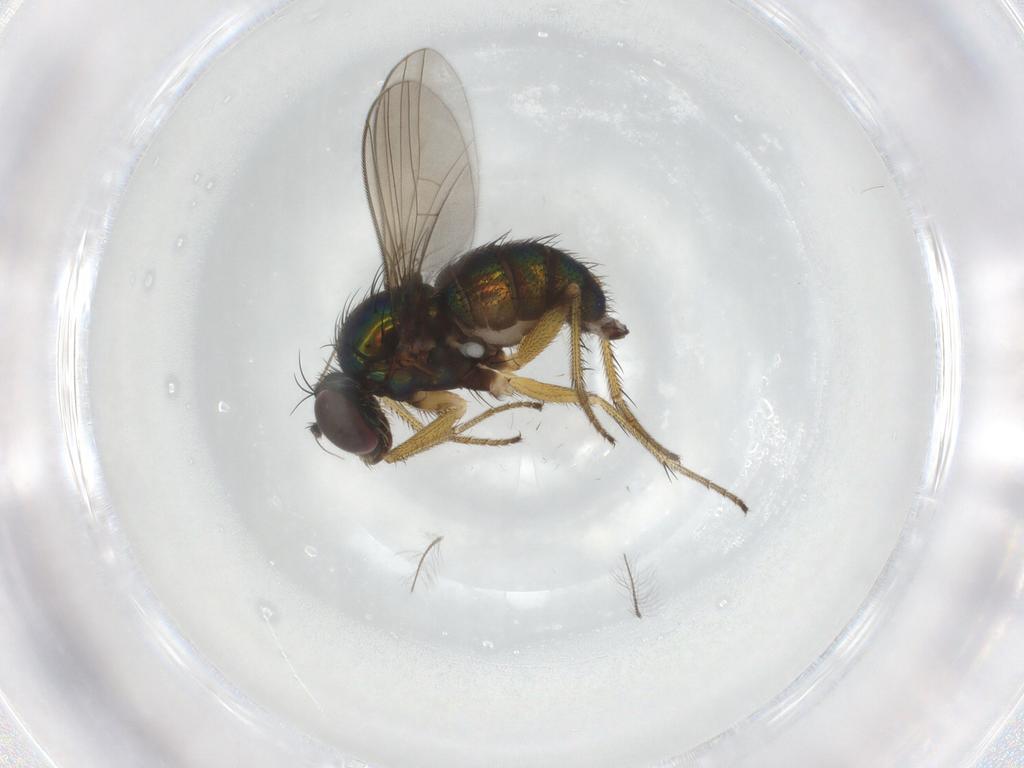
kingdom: Animalia
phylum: Arthropoda
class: Insecta
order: Diptera
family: Dolichopodidae
